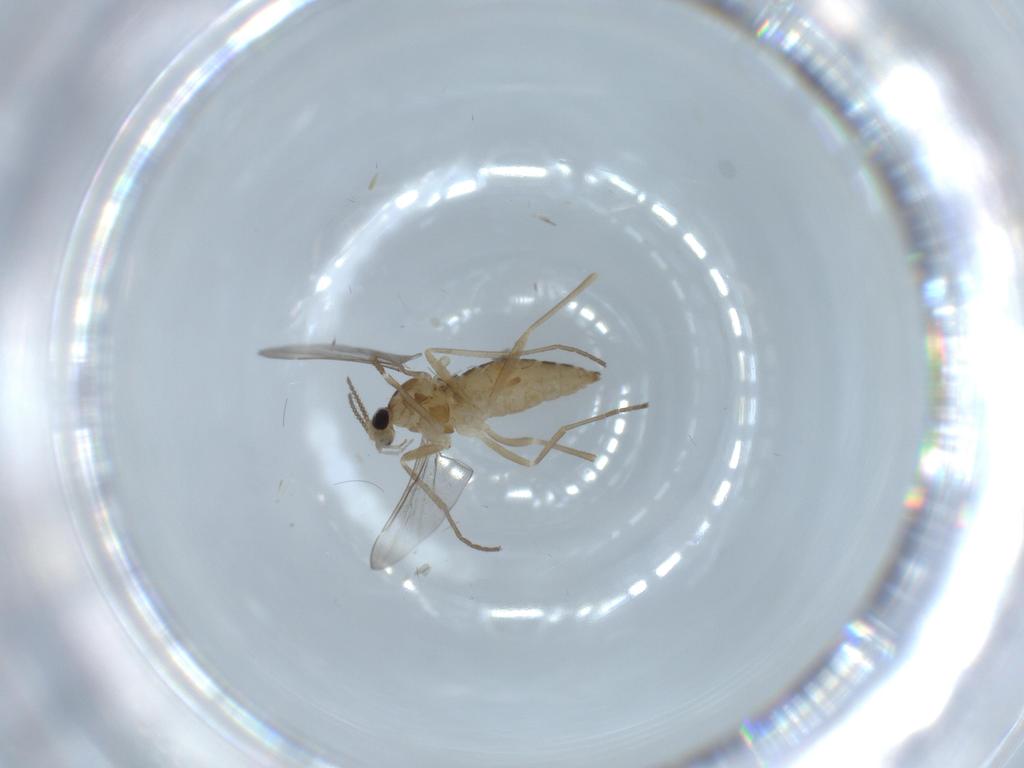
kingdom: Animalia
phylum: Arthropoda
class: Insecta
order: Diptera
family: Cecidomyiidae
